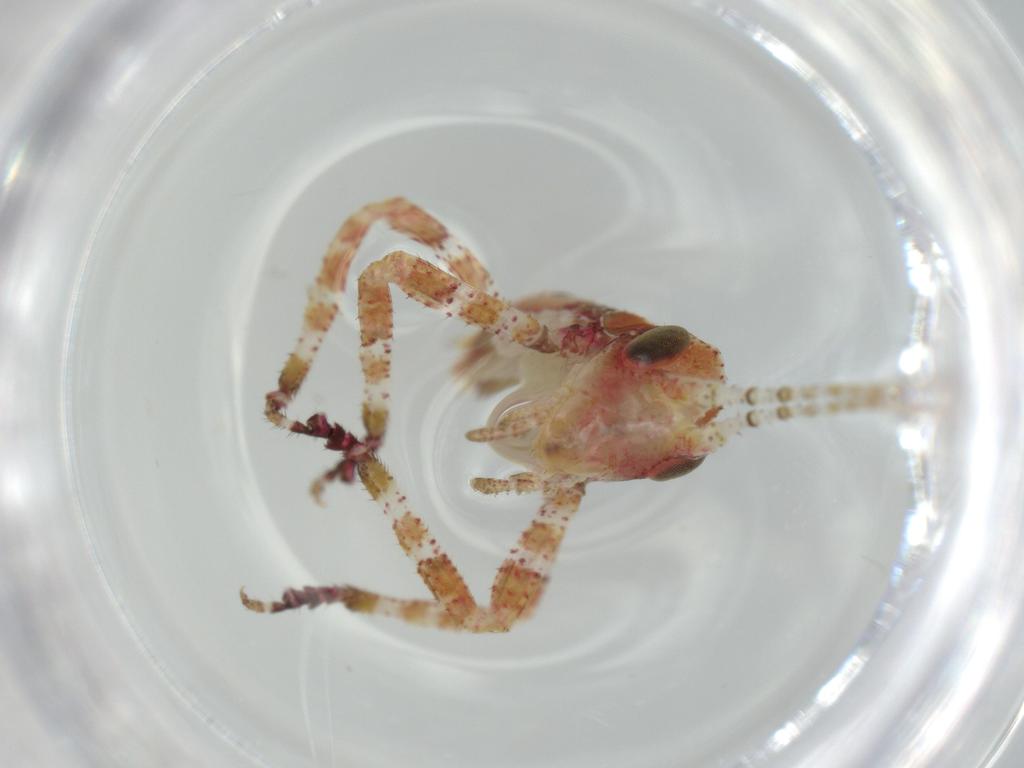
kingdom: Animalia
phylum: Arthropoda
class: Insecta
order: Orthoptera
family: Tettigoniidae
